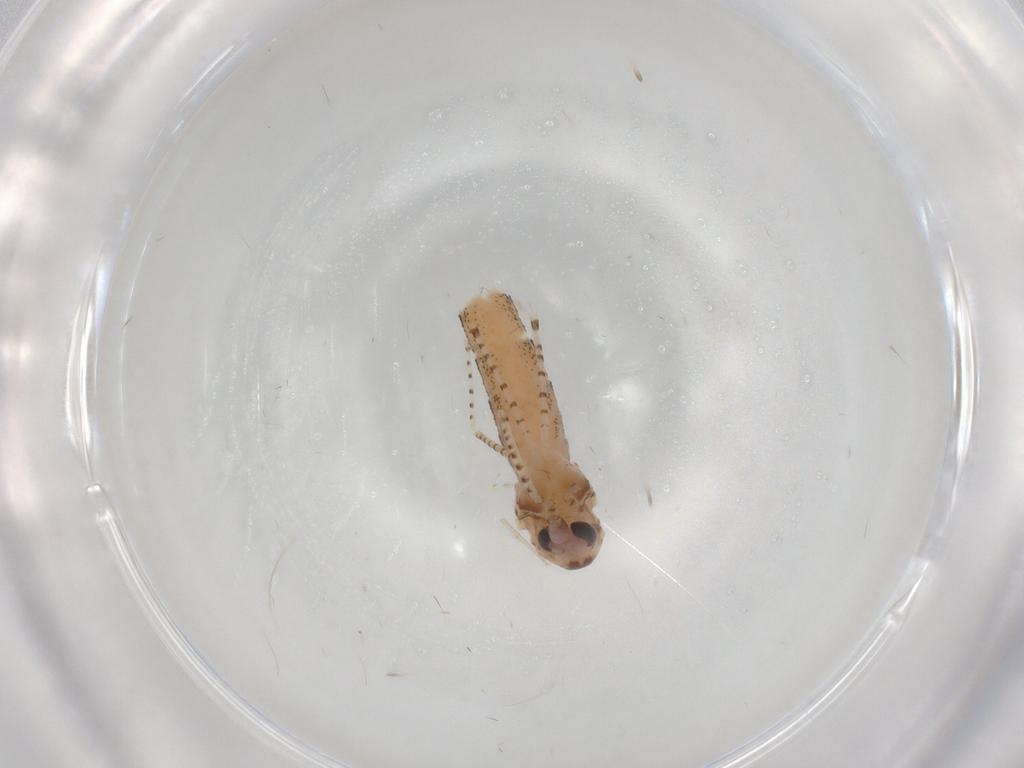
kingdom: Animalia
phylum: Arthropoda
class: Insecta
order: Diptera
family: Chaoboridae
